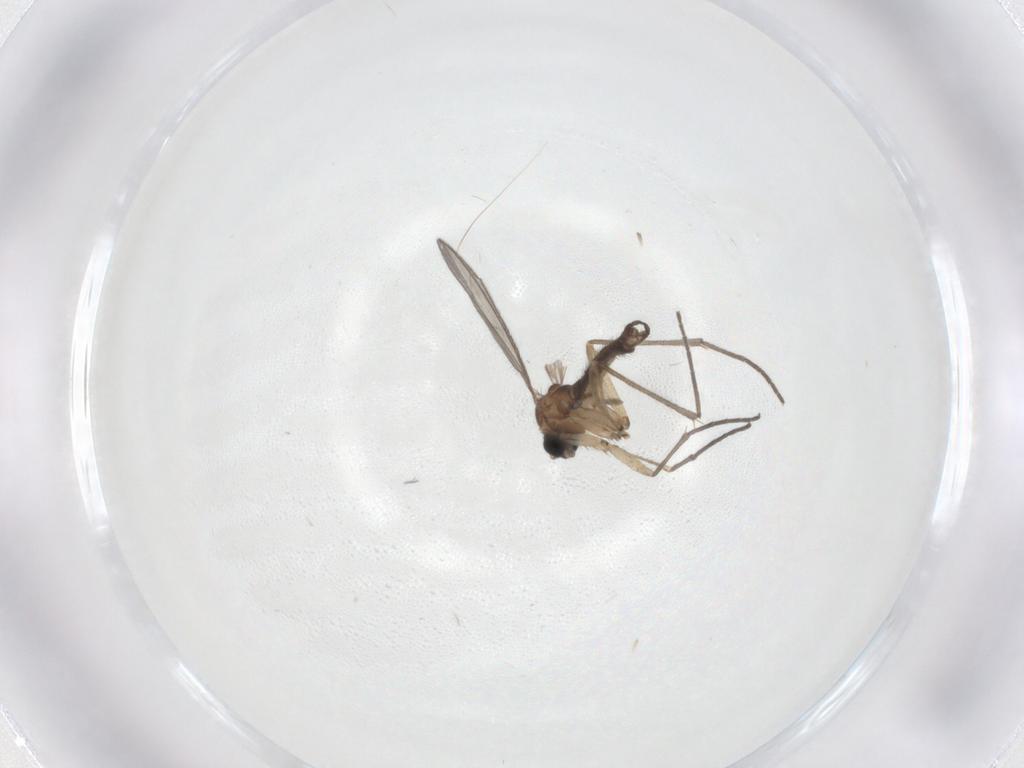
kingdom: Animalia
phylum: Arthropoda
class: Insecta
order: Diptera
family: Sciaridae
